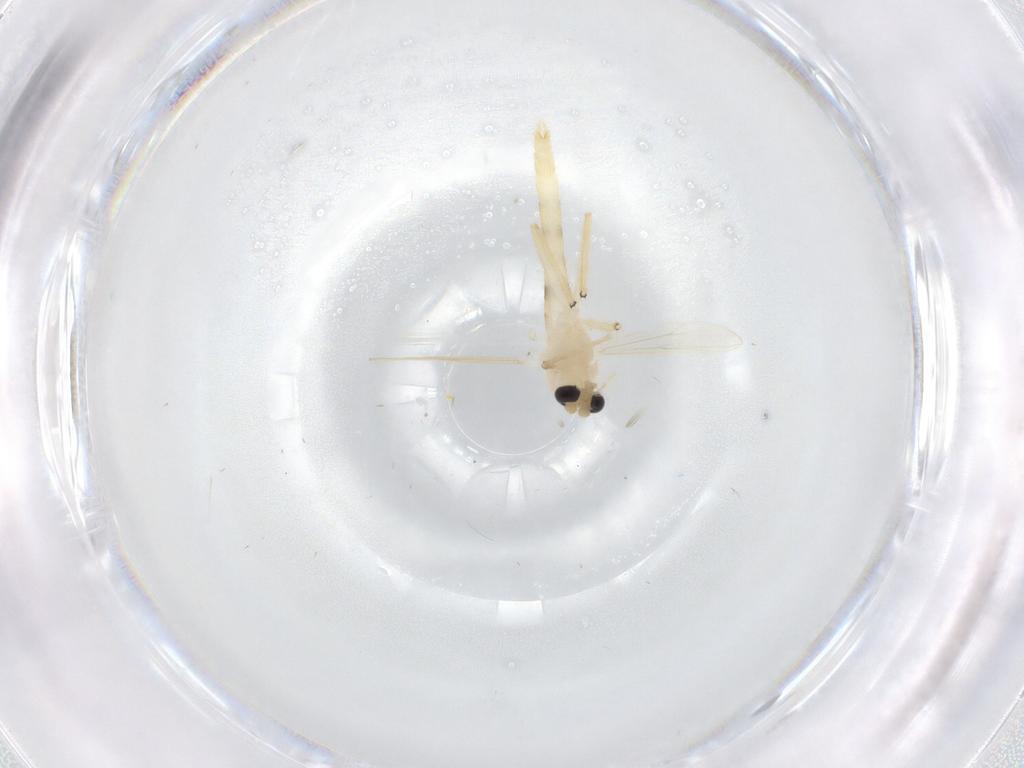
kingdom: Animalia
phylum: Arthropoda
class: Insecta
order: Diptera
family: Chironomidae
